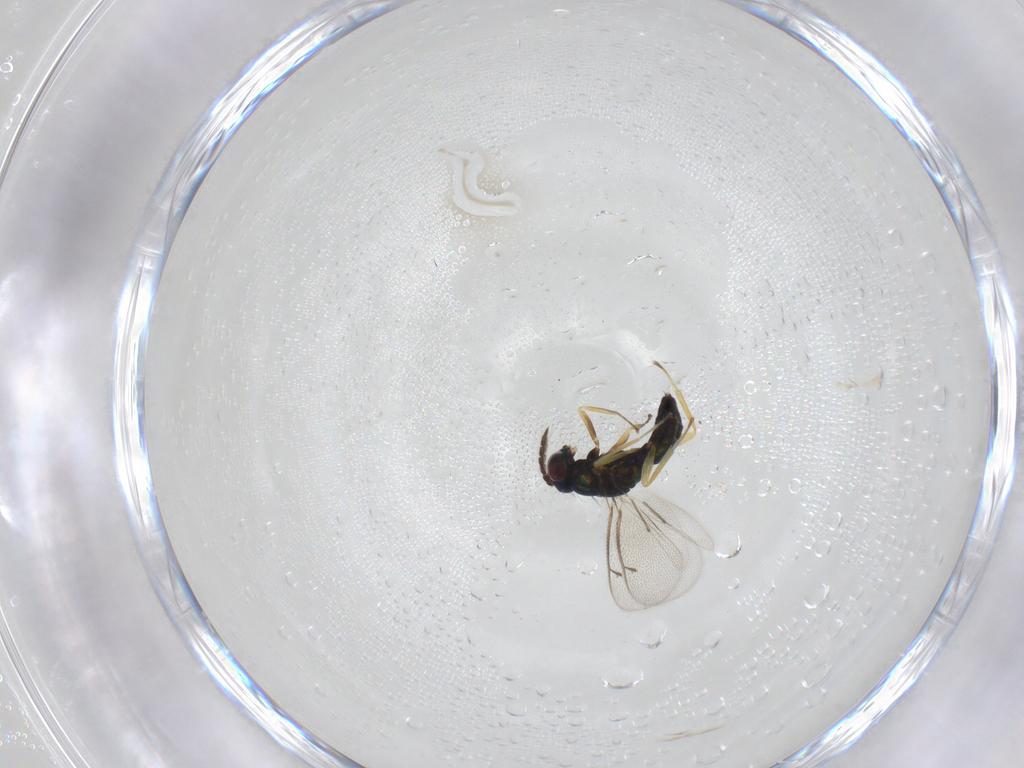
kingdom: Animalia
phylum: Arthropoda
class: Insecta
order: Hymenoptera
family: Eulophidae
